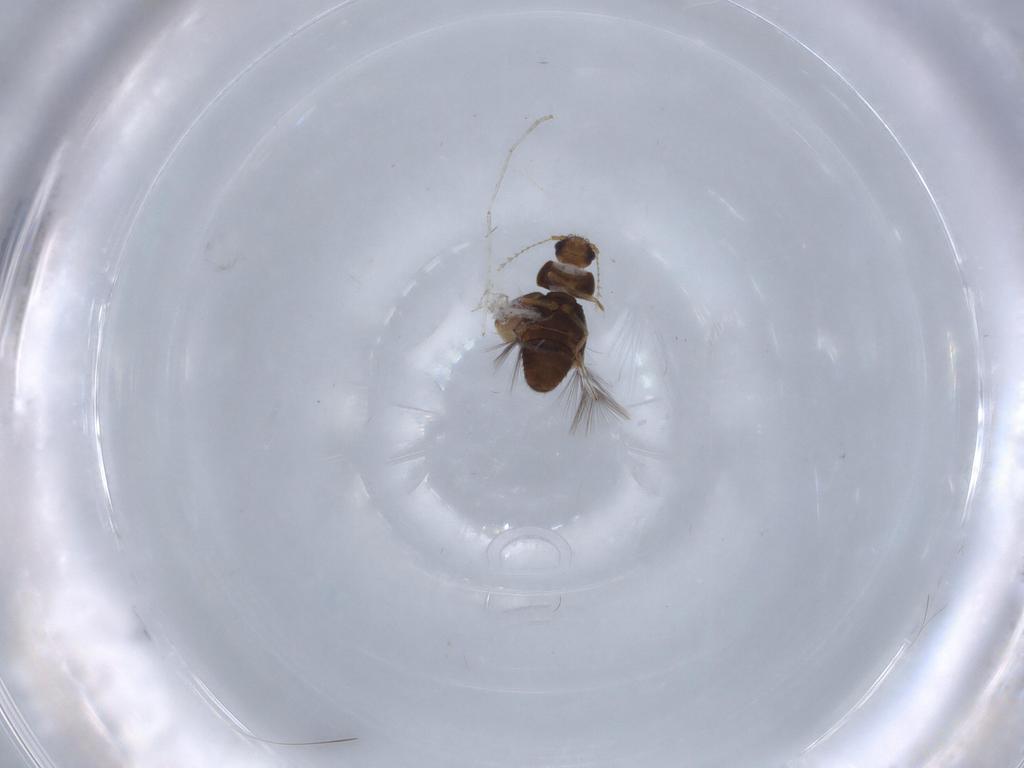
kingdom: Animalia
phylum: Arthropoda
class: Insecta
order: Coleoptera
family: Ptiliidae
